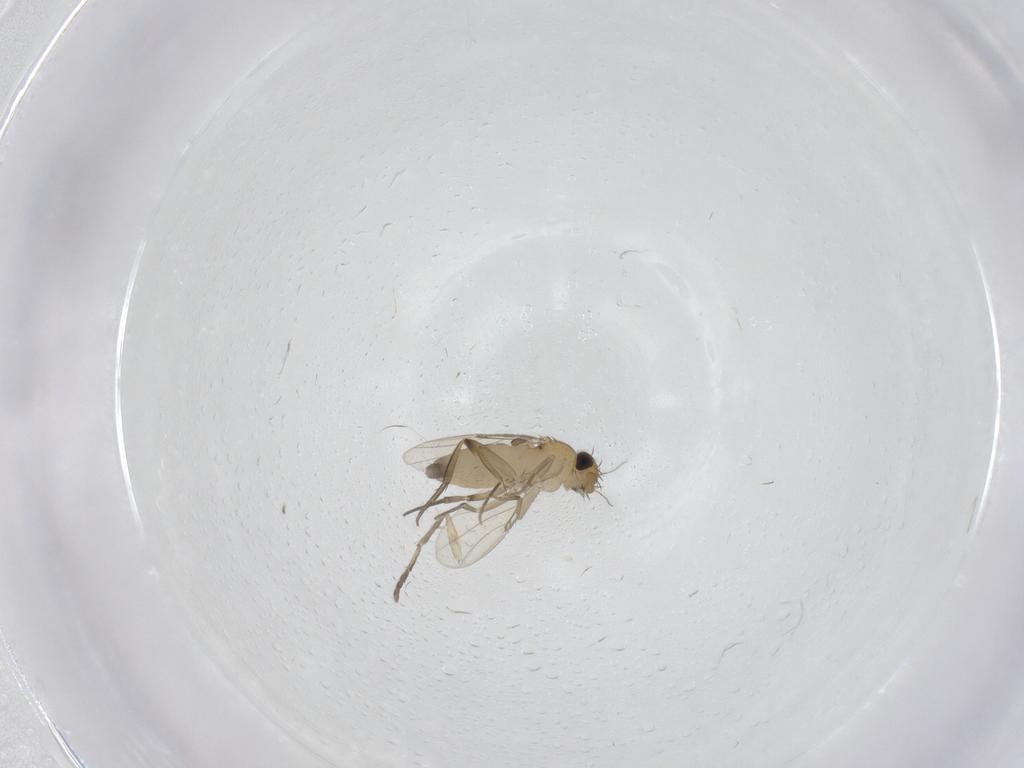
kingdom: Animalia
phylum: Arthropoda
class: Insecta
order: Diptera
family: Phoridae
